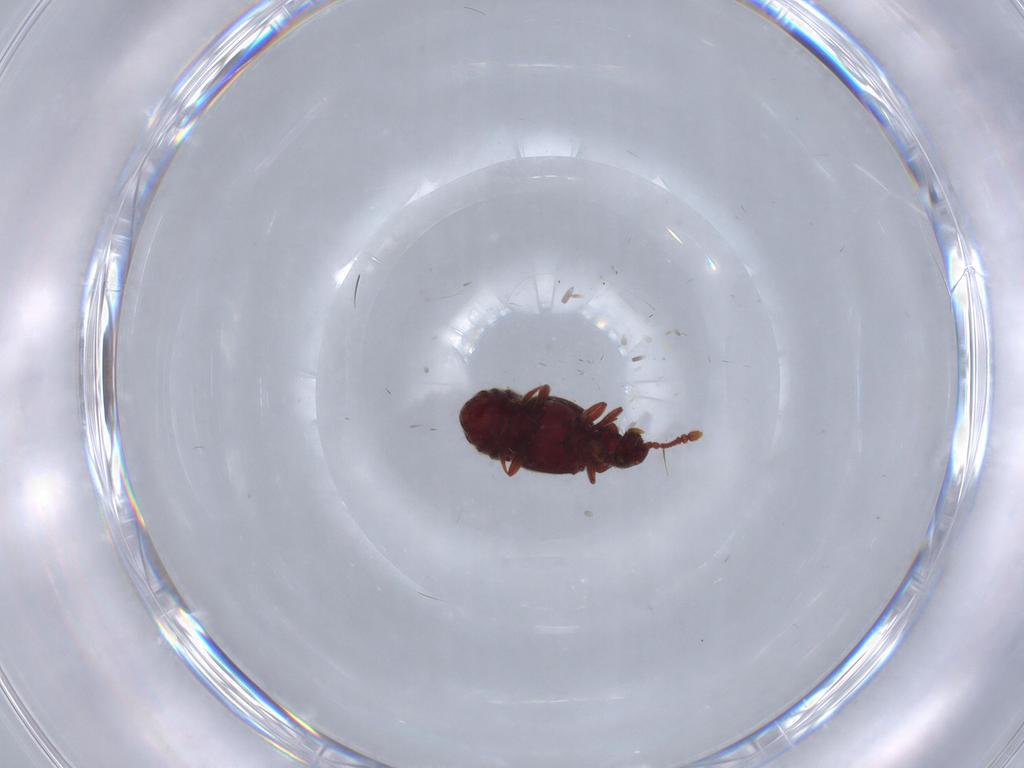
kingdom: Animalia
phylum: Arthropoda
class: Insecta
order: Coleoptera
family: Staphylinidae
